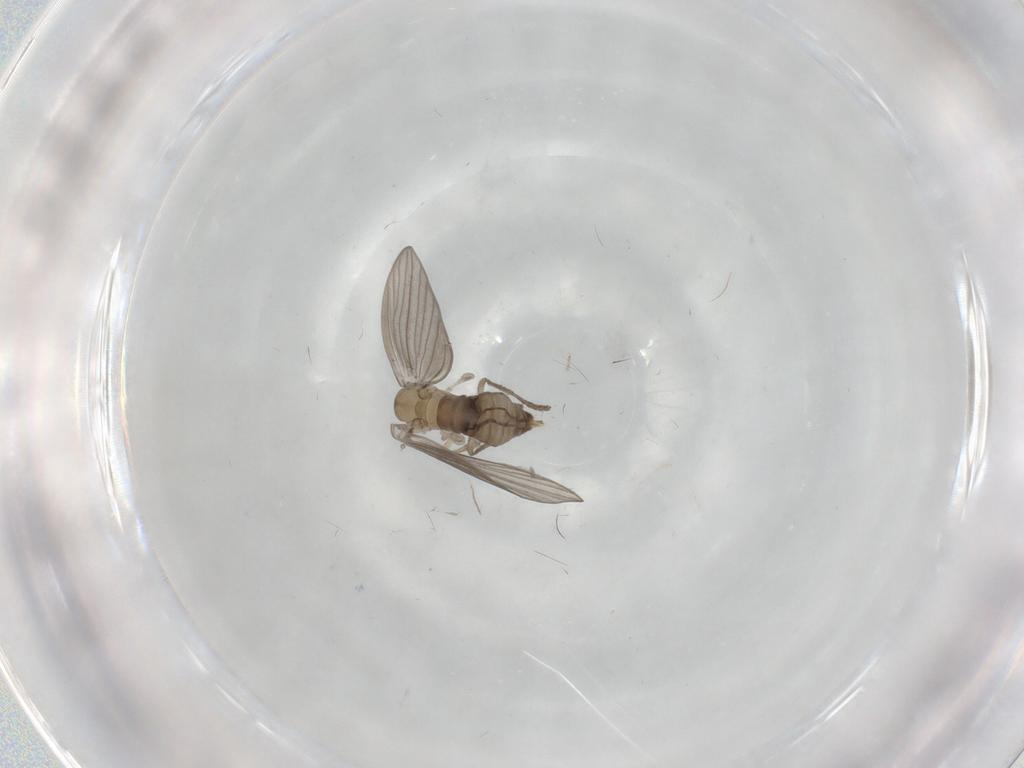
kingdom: Animalia
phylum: Arthropoda
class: Insecta
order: Diptera
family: Psychodidae
